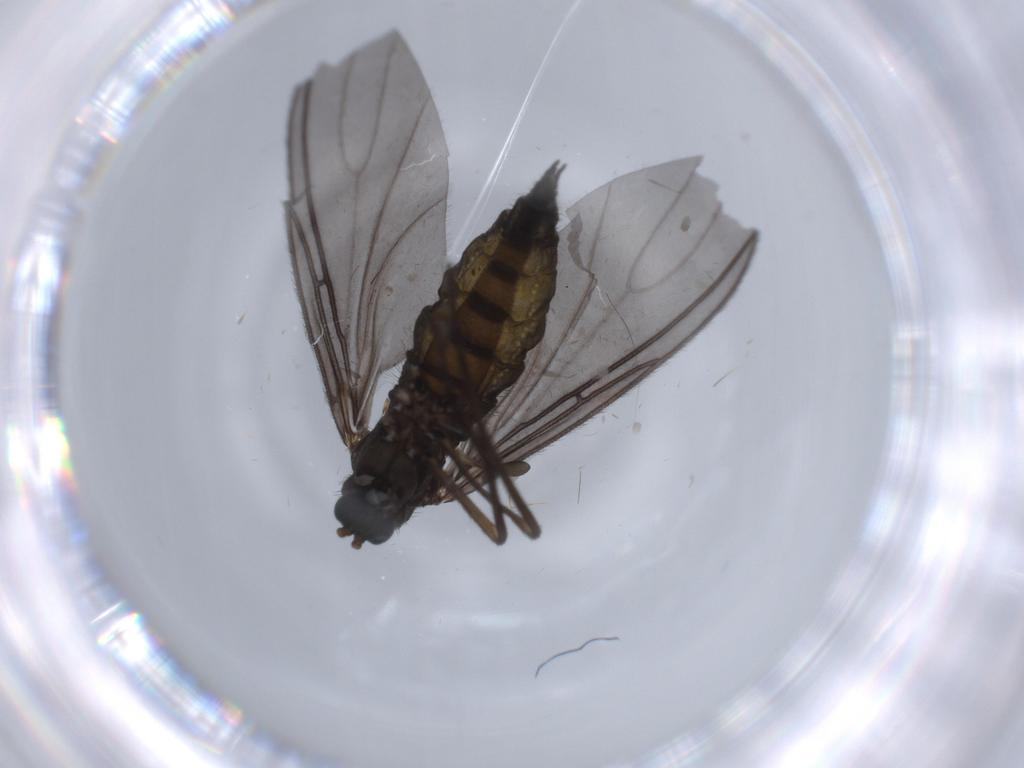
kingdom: Animalia
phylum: Arthropoda
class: Insecta
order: Diptera
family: Sciaridae
